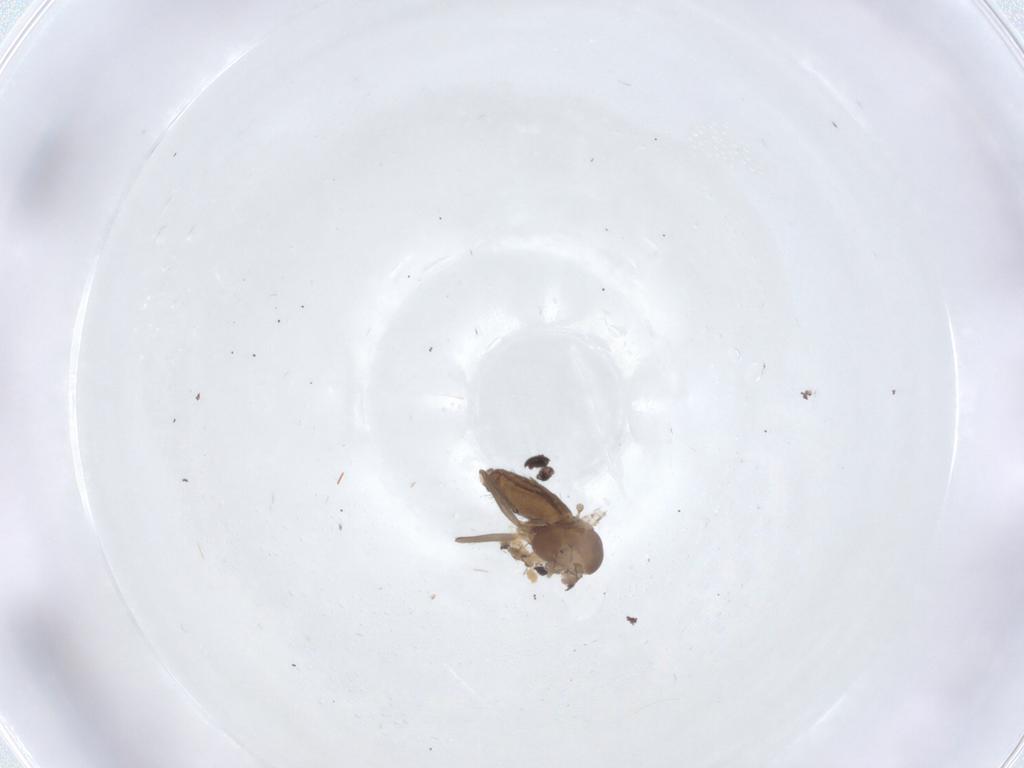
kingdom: Animalia
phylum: Arthropoda
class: Insecta
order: Diptera
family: Chironomidae
